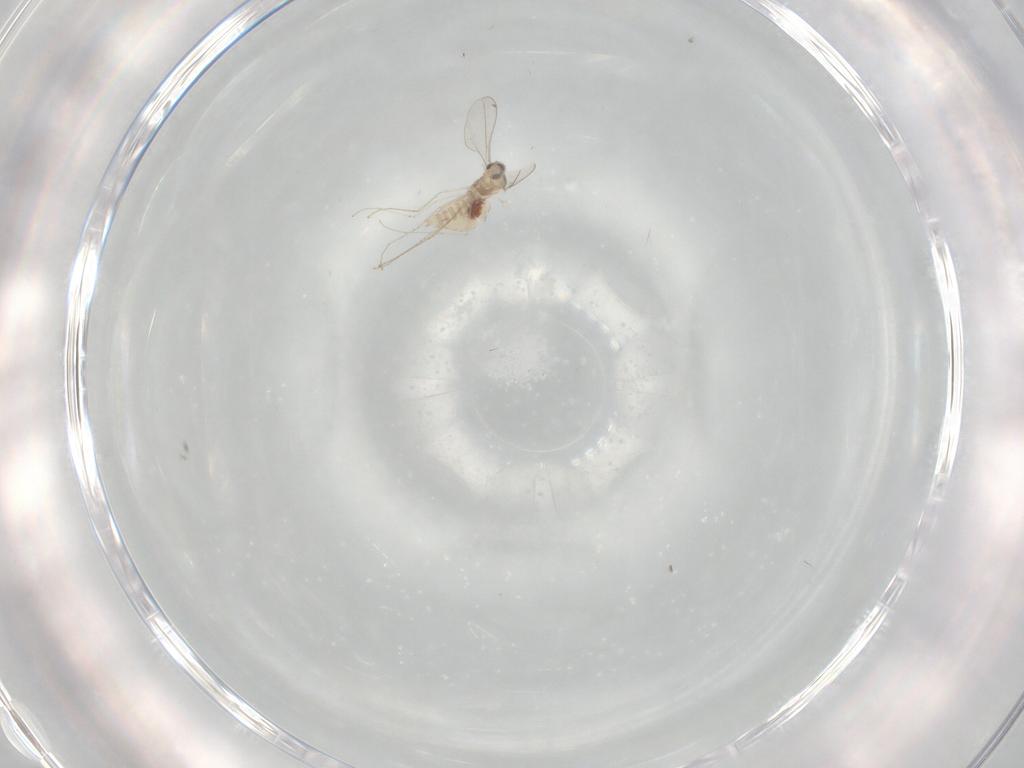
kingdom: Animalia
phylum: Arthropoda
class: Insecta
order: Diptera
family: Cecidomyiidae
